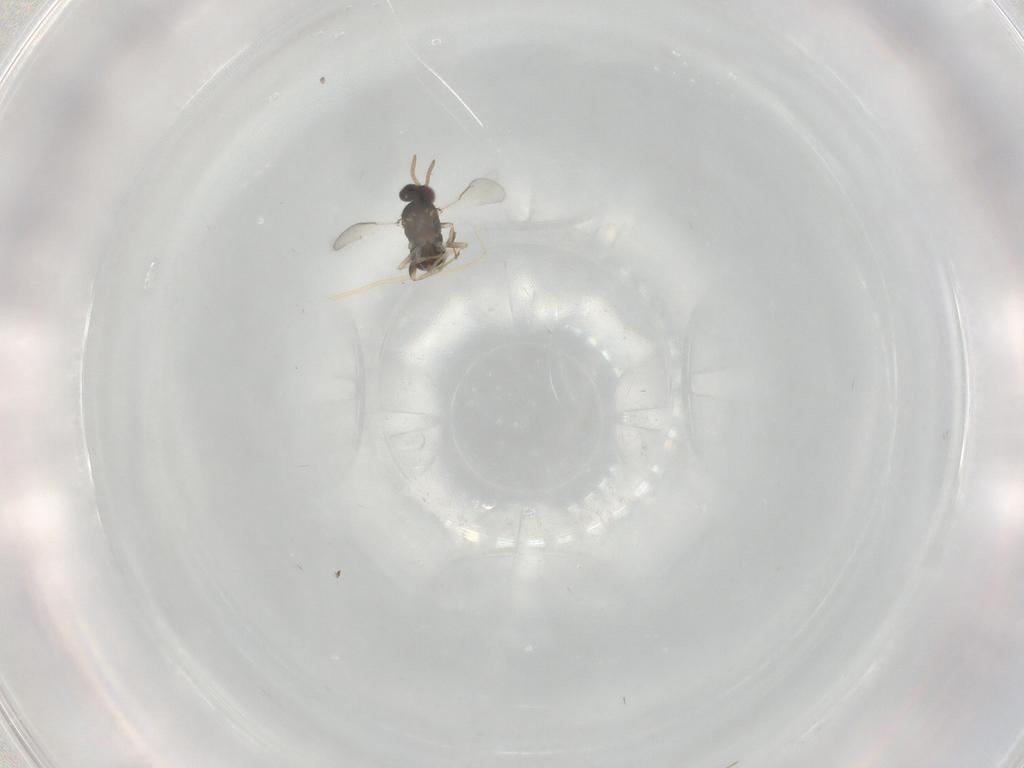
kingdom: Animalia
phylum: Arthropoda
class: Insecta
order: Hymenoptera
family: Aphelinidae
